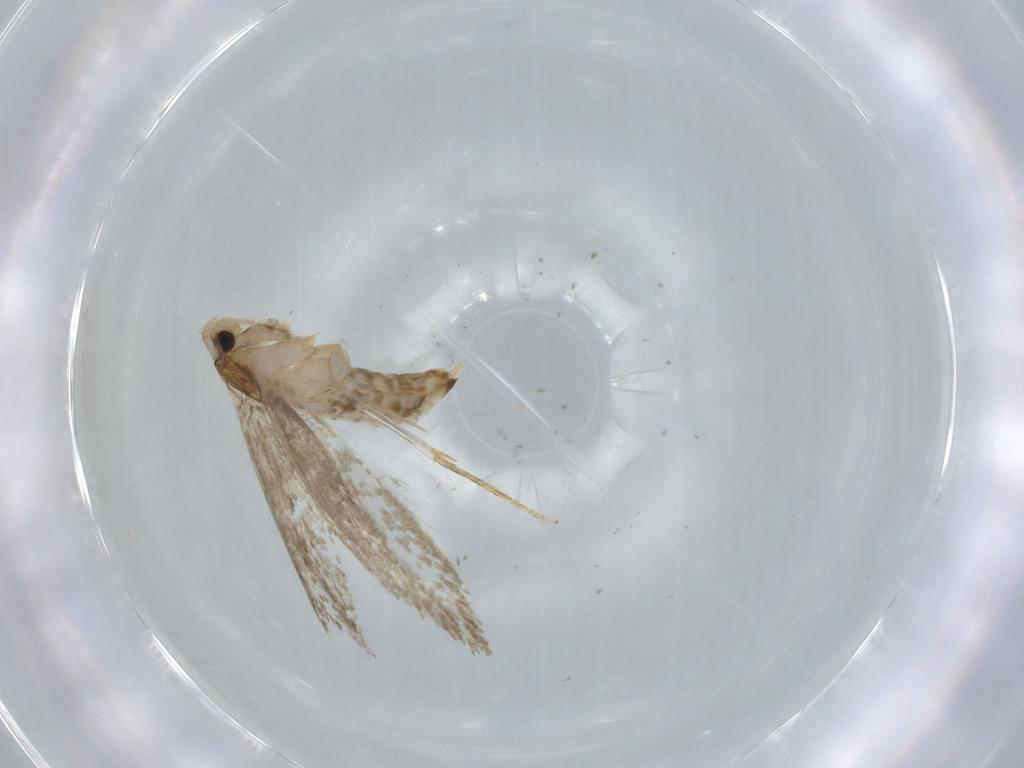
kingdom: Animalia
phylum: Arthropoda
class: Insecta
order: Lepidoptera
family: Tineidae
